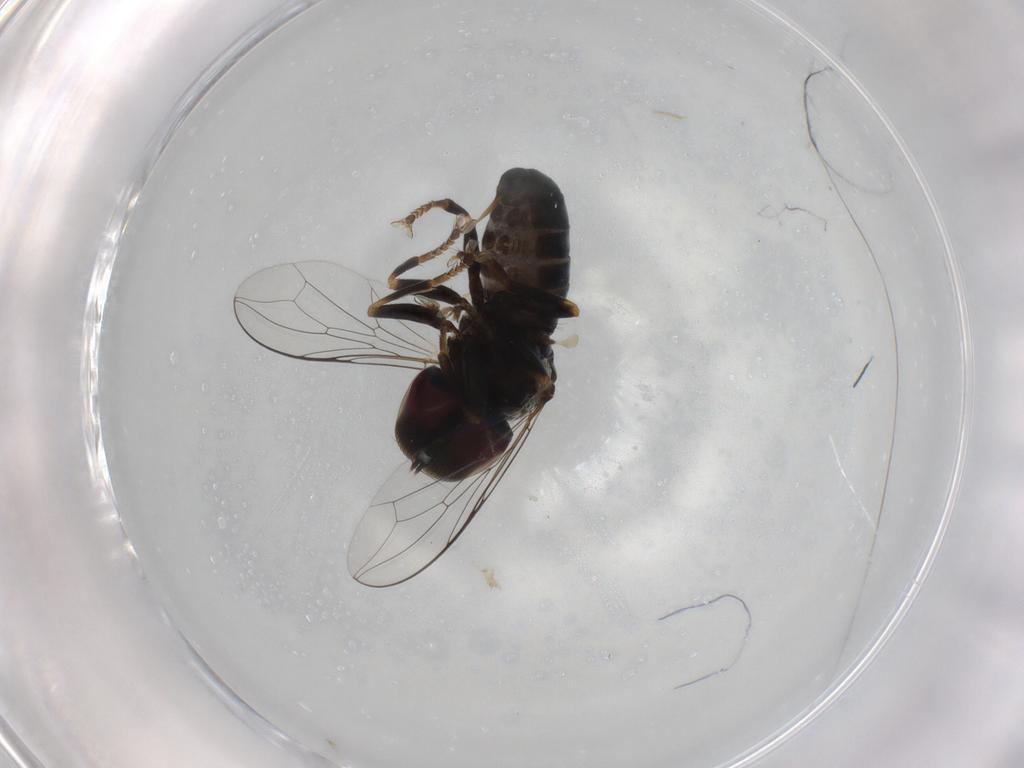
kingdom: Animalia
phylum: Arthropoda
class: Insecta
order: Diptera
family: Pipunculidae
